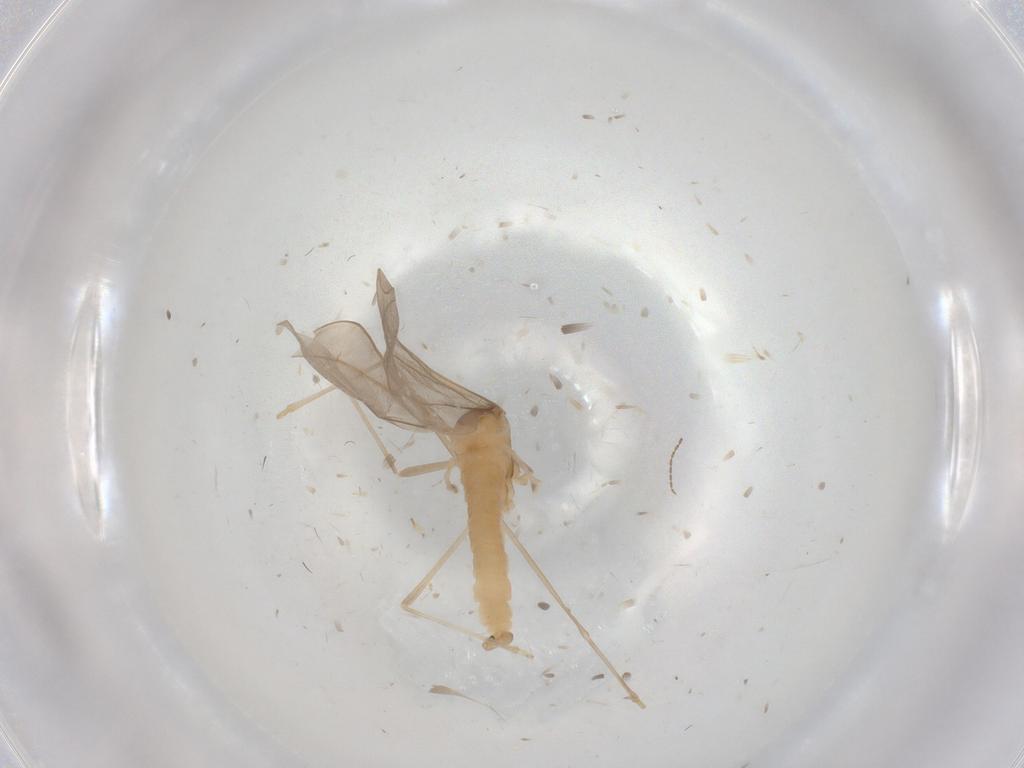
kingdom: Animalia
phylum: Arthropoda
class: Insecta
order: Diptera
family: Cecidomyiidae
